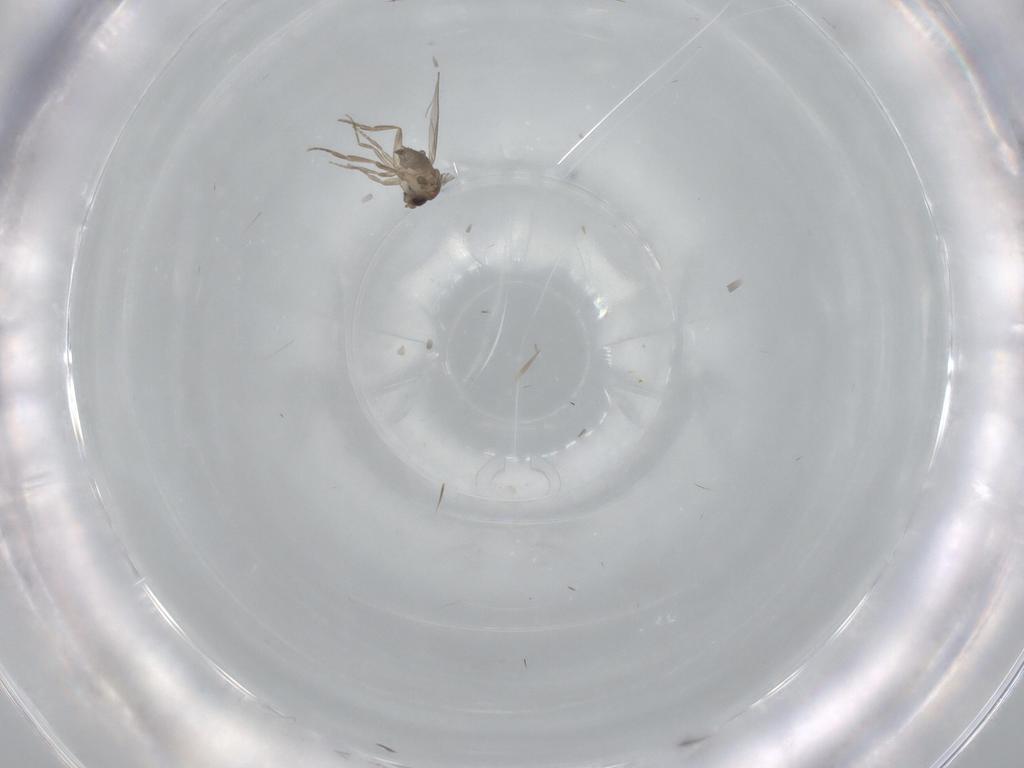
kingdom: Animalia
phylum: Arthropoda
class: Insecta
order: Diptera
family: Phoridae
